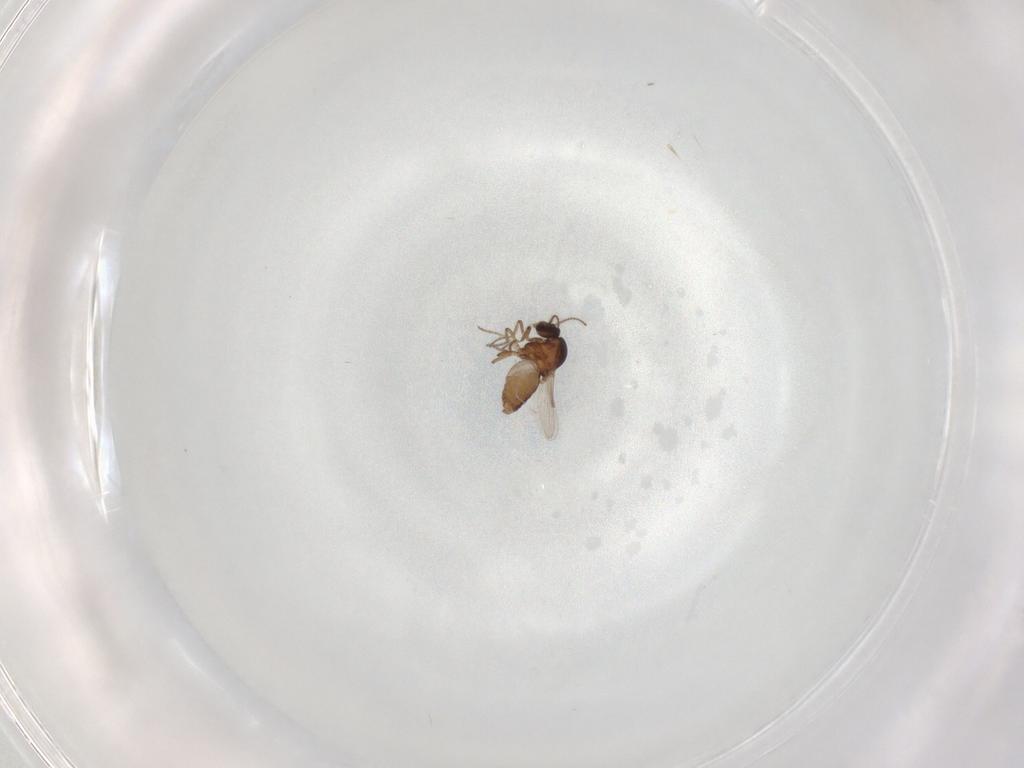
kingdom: Animalia
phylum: Arthropoda
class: Insecta
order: Diptera
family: Ceratopogonidae
